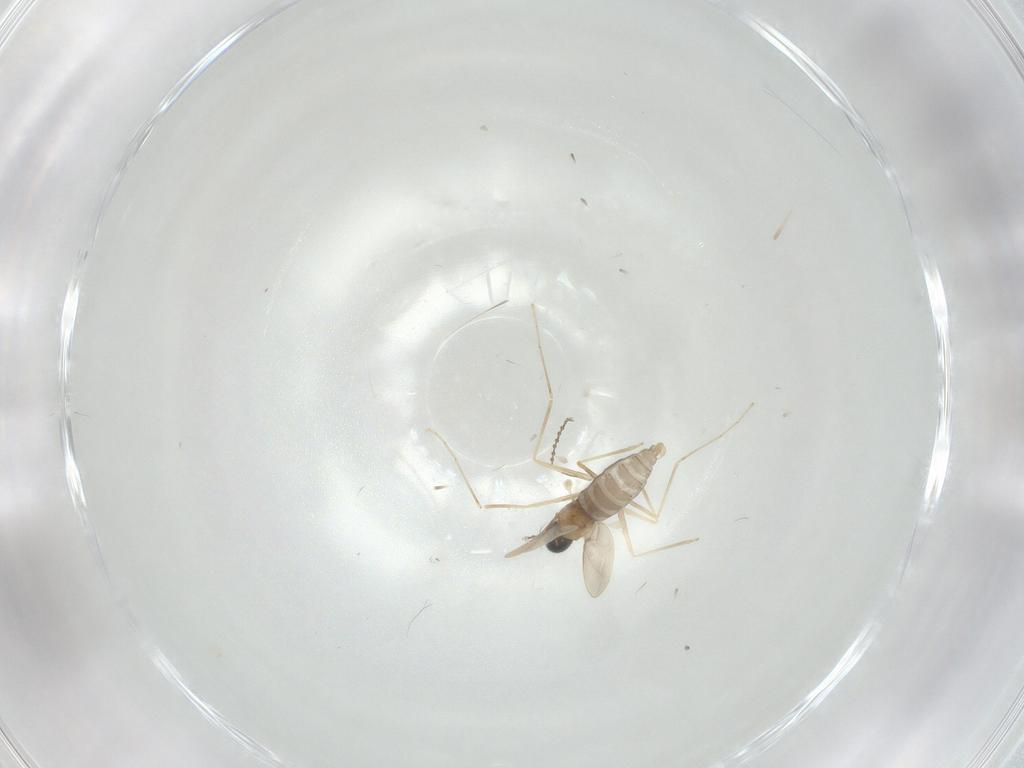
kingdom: Animalia
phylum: Arthropoda
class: Insecta
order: Diptera
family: Cecidomyiidae
